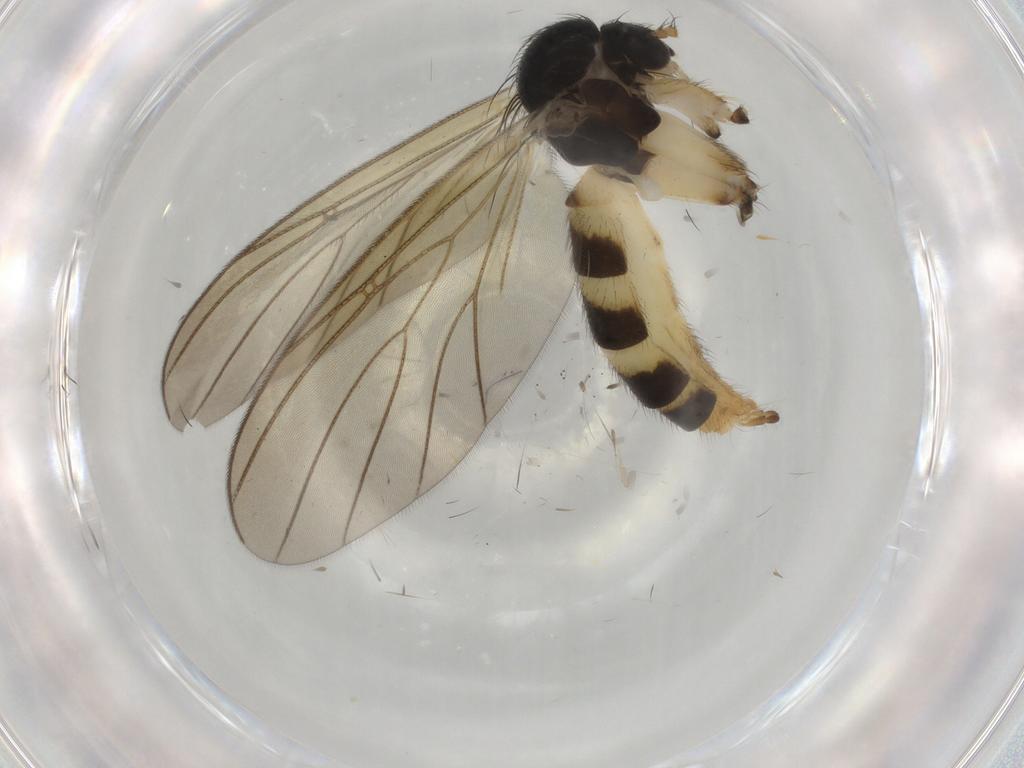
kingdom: Animalia
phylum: Arthropoda
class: Insecta
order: Diptera
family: Mycetophilidae
